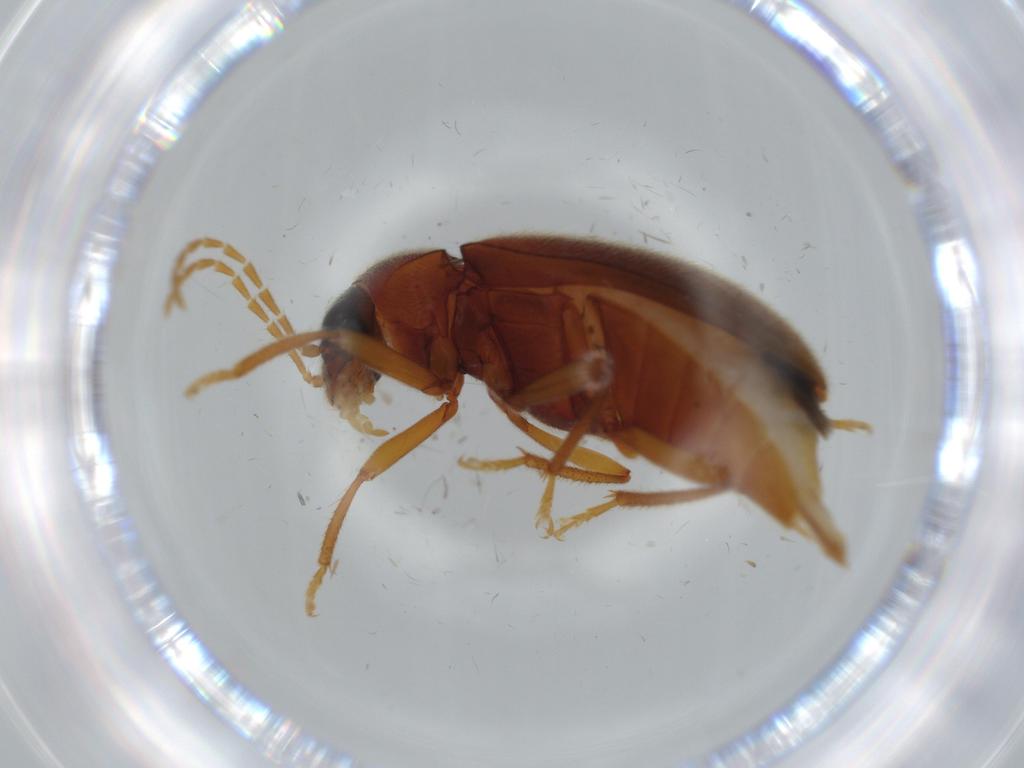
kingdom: Animalia
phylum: Arthropoda
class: Insecta
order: Coleoptera
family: Ptilodactylidae
